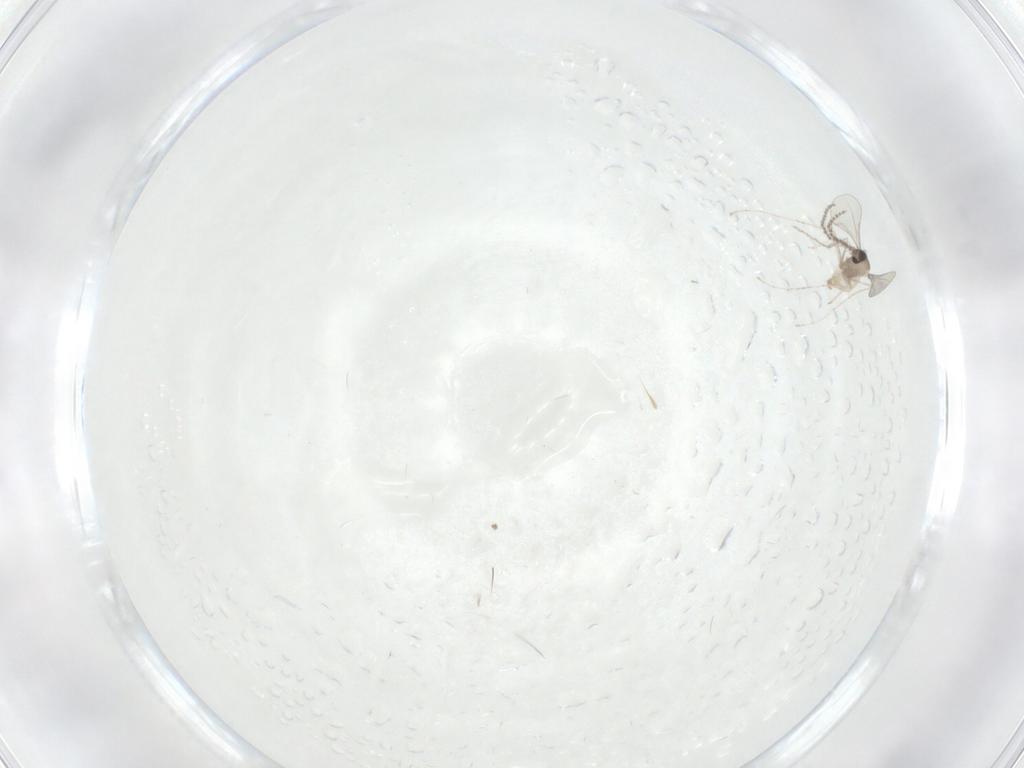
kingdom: Animalia
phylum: Arthropoda
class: Insecta
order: Diptera
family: Cecidomyiidae
